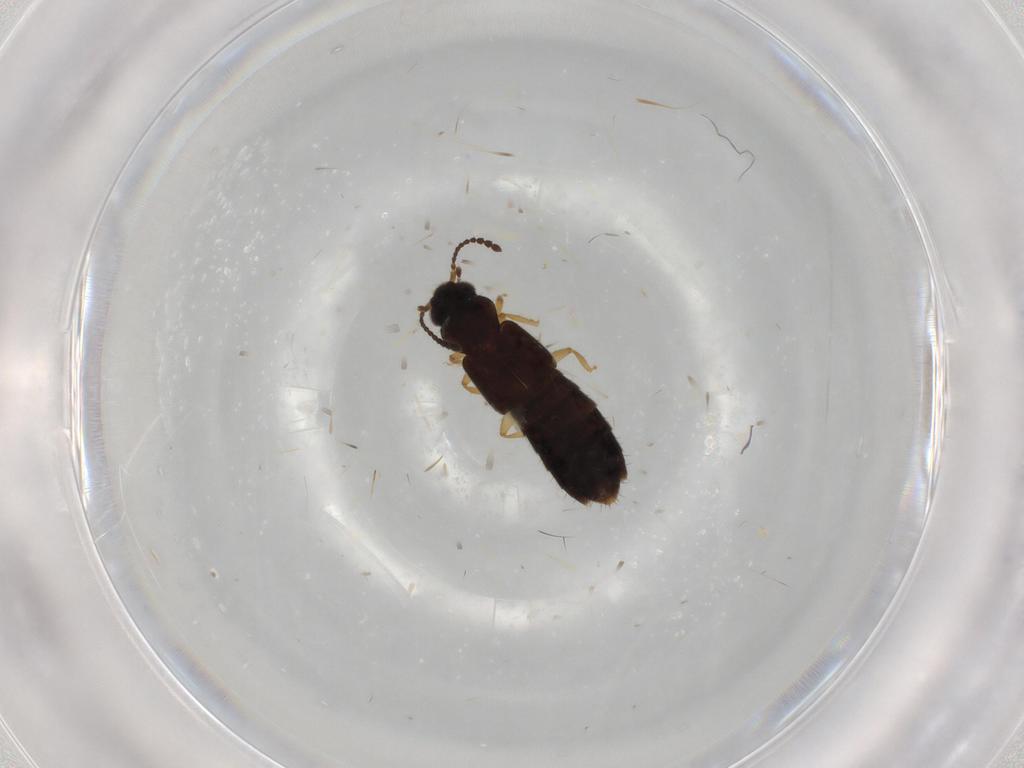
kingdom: Animalia
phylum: Arthropoda
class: Insecta
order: Coleoptera
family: Staphylinidae
